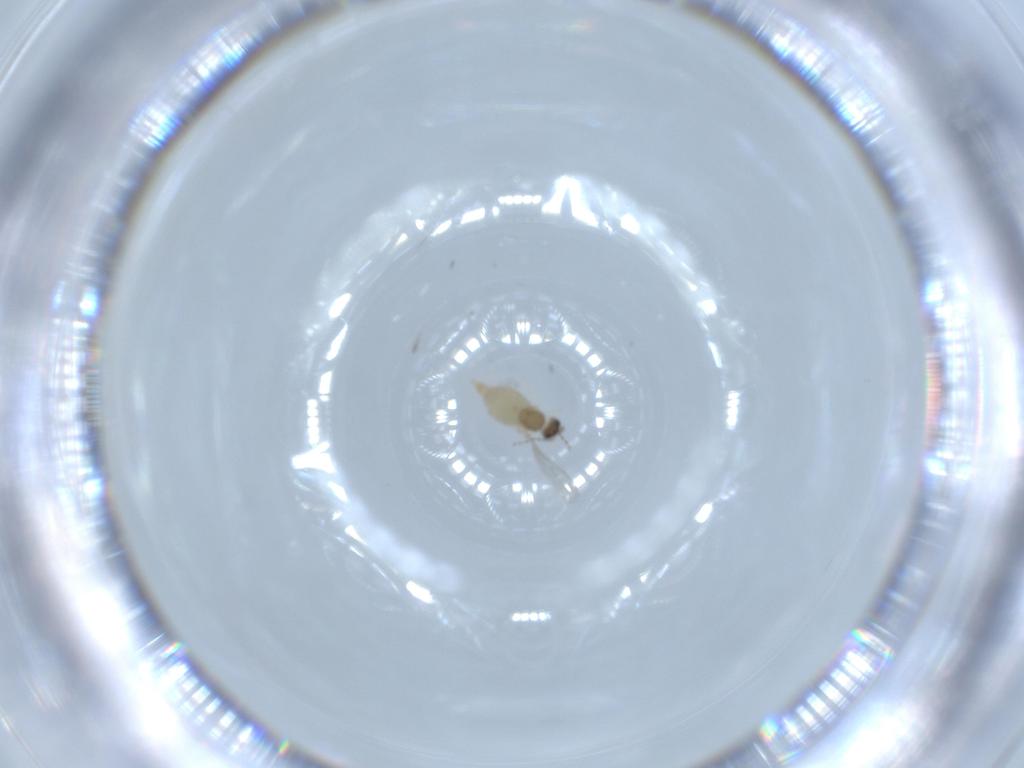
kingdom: Animalia
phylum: Arthropoda
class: Insecta
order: Diptera
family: Cecidomyiidae
